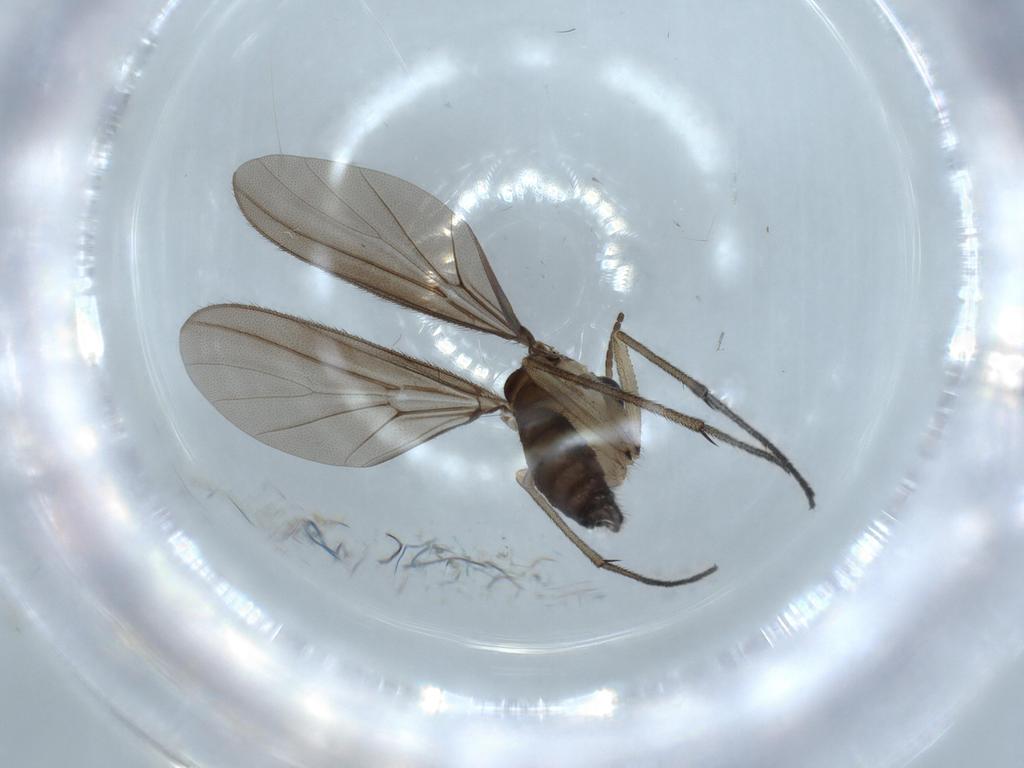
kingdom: Animalia
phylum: Arthropoda
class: Insecta
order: Diptera
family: Diadocidiidae
